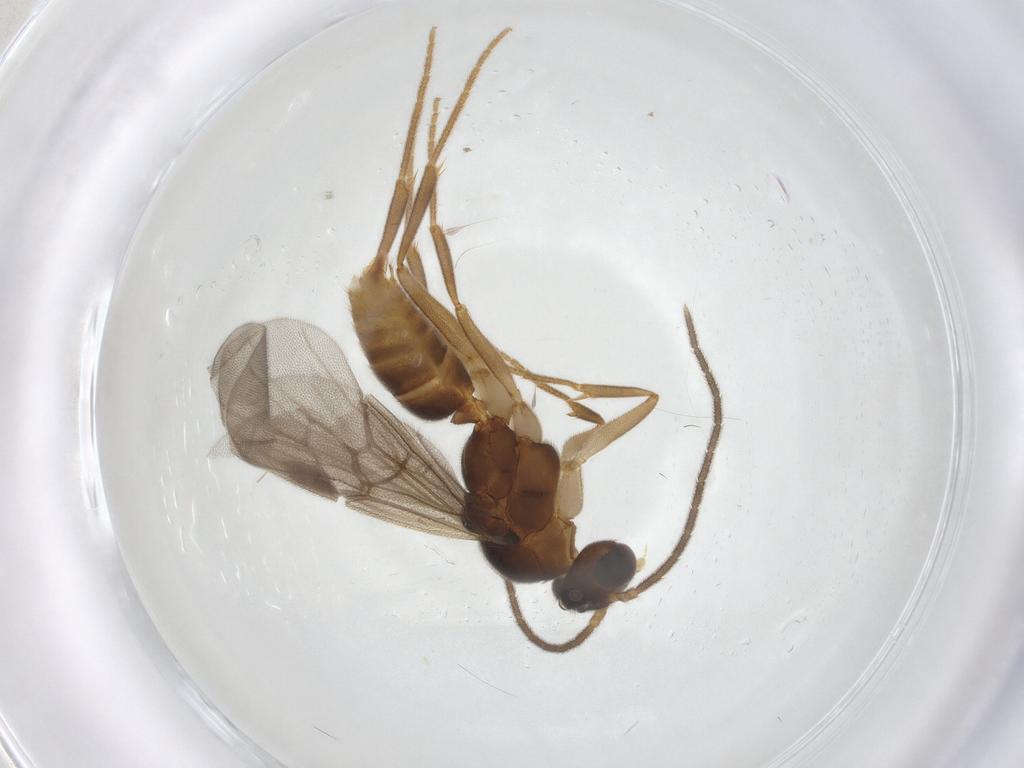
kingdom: Animalia
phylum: Arthropoda
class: Insecta
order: Hymenoptera
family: Formicidae
